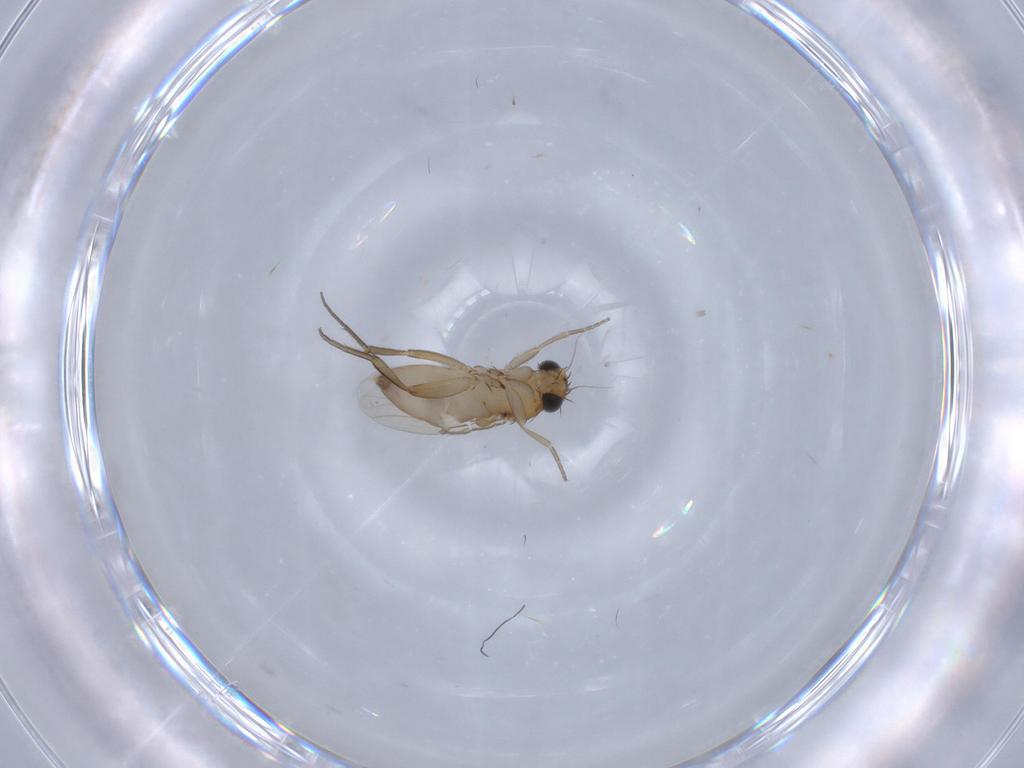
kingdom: Animalia
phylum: Arthropoda
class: Insecta
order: Diptera
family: Phoridae
